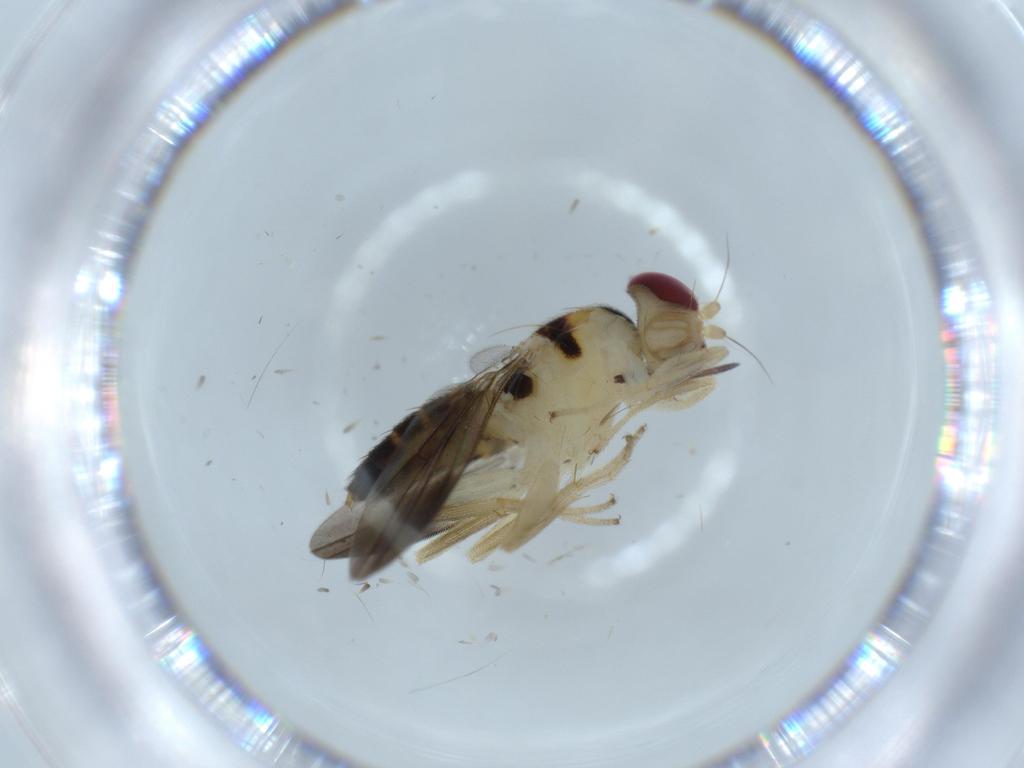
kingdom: Animalia
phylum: Arthropoda
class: Insecta
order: Diptera
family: Clusiidae
